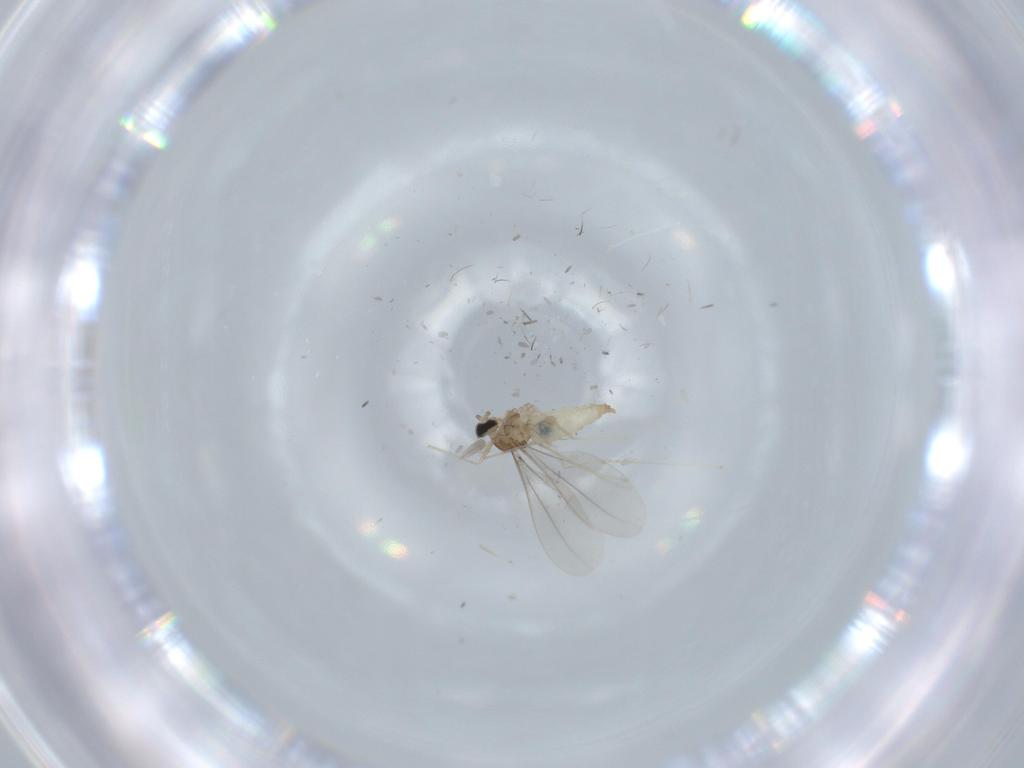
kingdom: Animalia
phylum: Arthropoda
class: Insecta
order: Diptera
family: Cecidomyiidae
